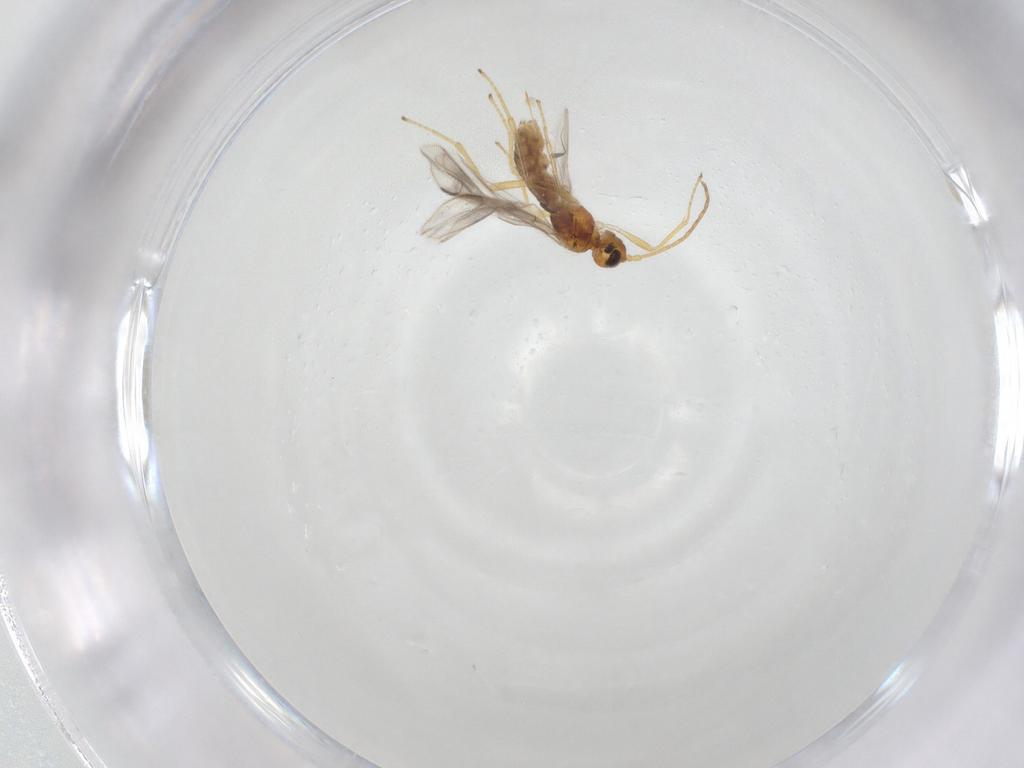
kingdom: Animalia
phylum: Arthropoda
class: Insecta
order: Hymenoptera
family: Braconidae
